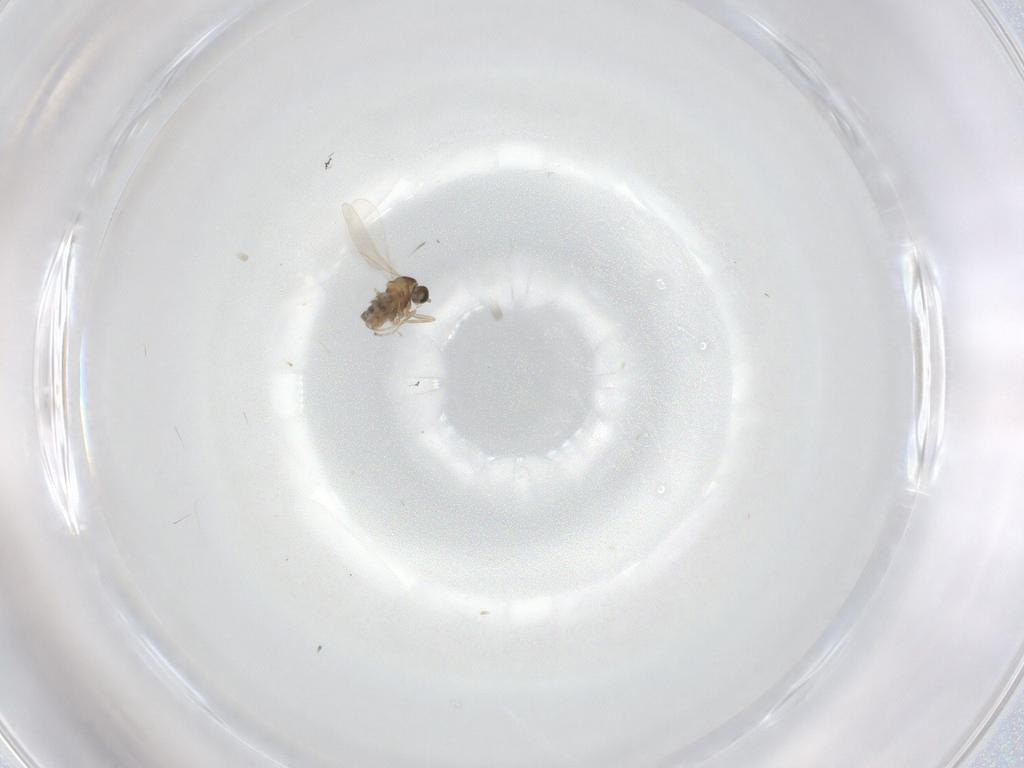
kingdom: Animalia
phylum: Arthropoda
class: Insecta
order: Diptera
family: Cecidomyiidae
